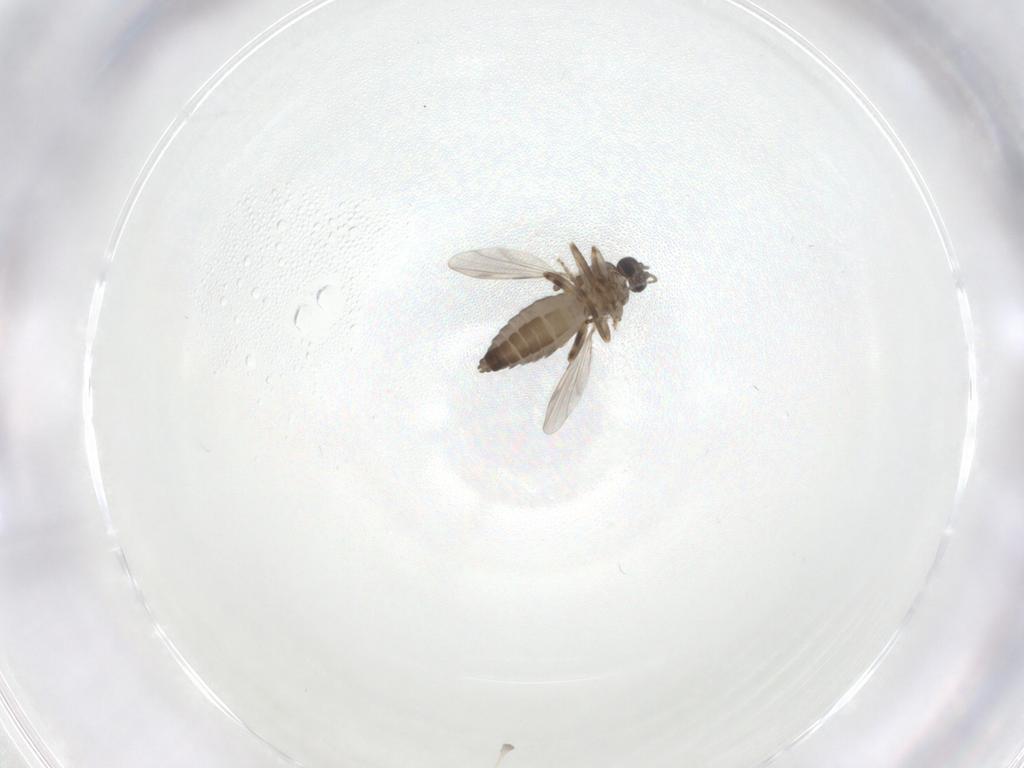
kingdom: Animalia
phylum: Arthropoda
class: Insecta
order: Diptera
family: Ceratopogonidae
